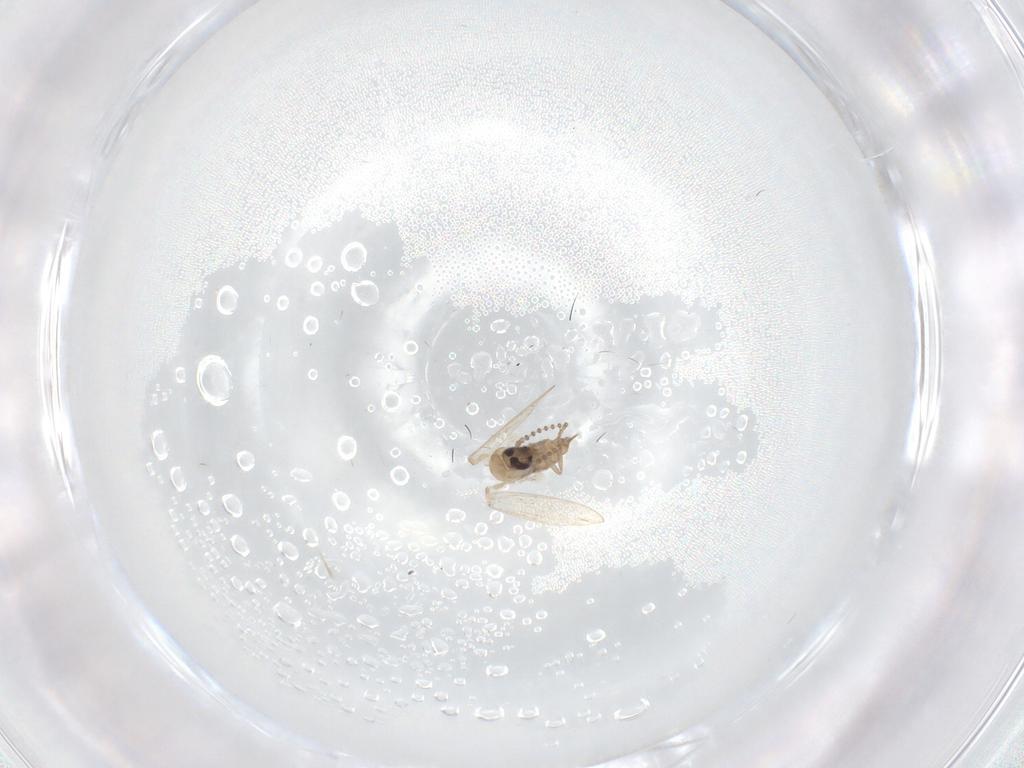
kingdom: Animalia
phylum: Arthropoda
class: Insecta
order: Diptera
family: Psychodidae
